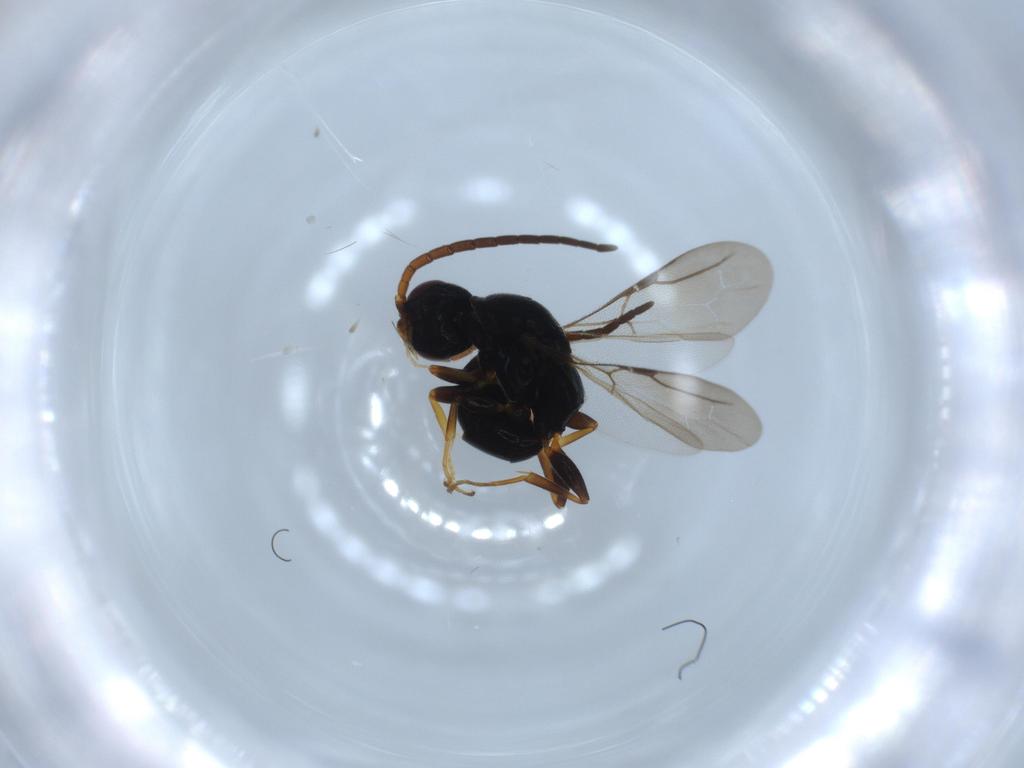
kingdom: Animalia
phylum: Arthropoda
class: Insecta
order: Hymenoptera
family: Bethylidae
